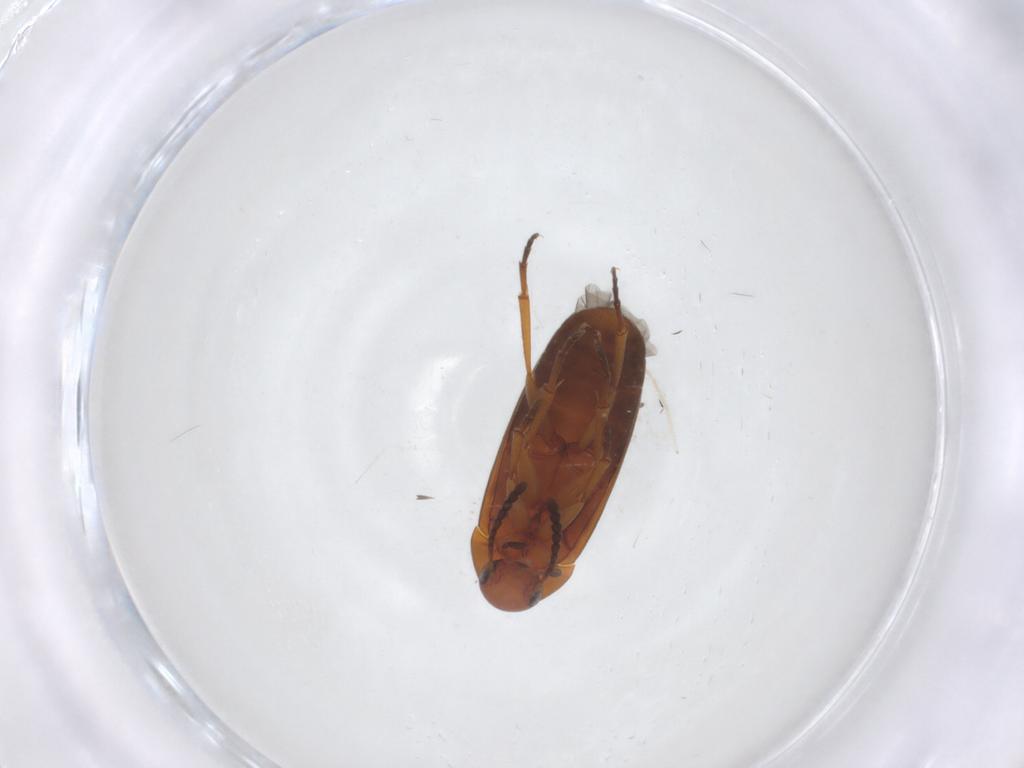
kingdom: Animalia
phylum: Arthropoda
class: Insecta
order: Coleoptera
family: Scraptiidae
